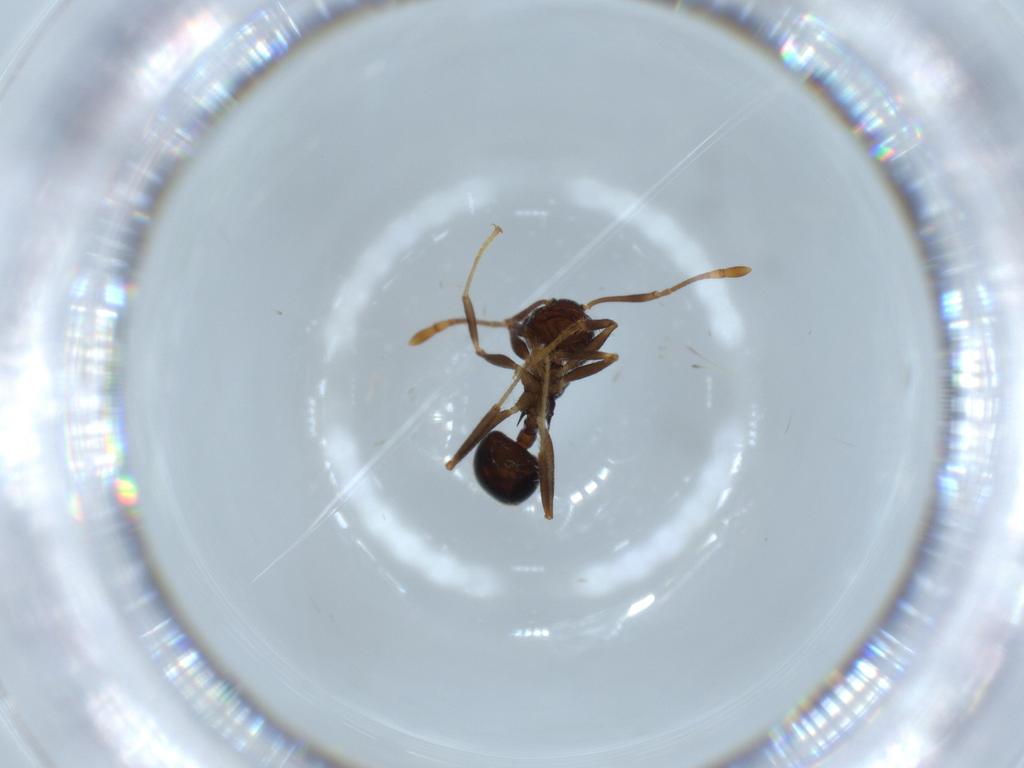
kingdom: Animalia
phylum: Arthropoda
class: Insecta
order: Hymenoptera
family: Formicidae
